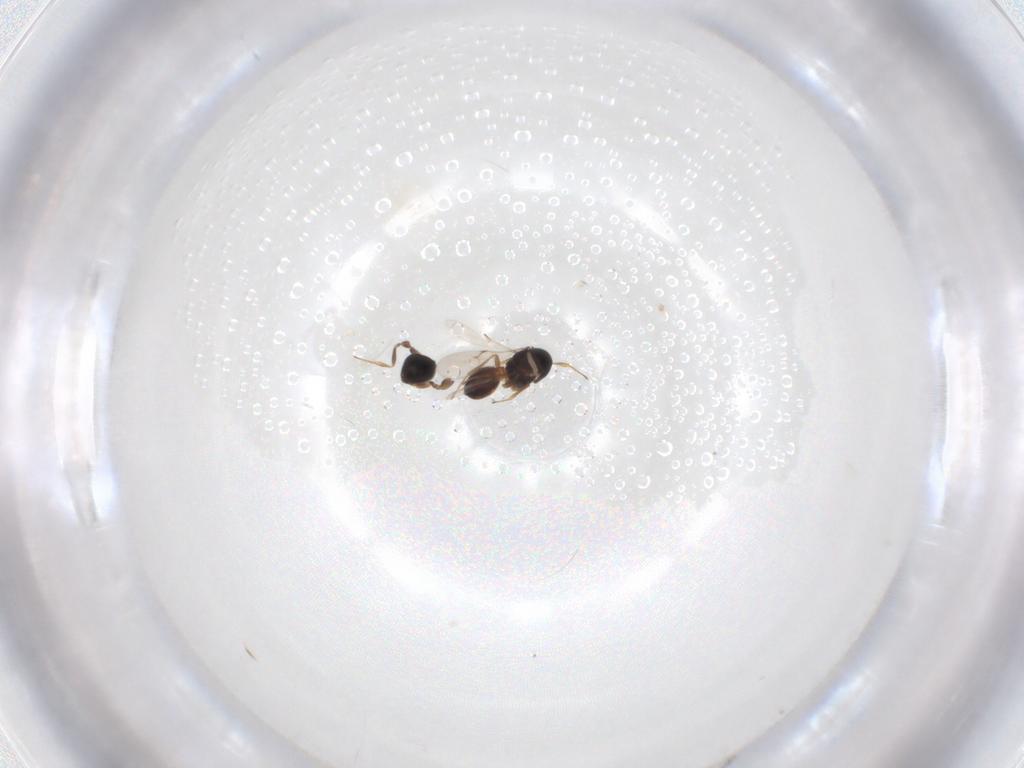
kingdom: Animalia
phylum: Arthropoda
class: Insecta
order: Hymenoptera
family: Scelionidae
